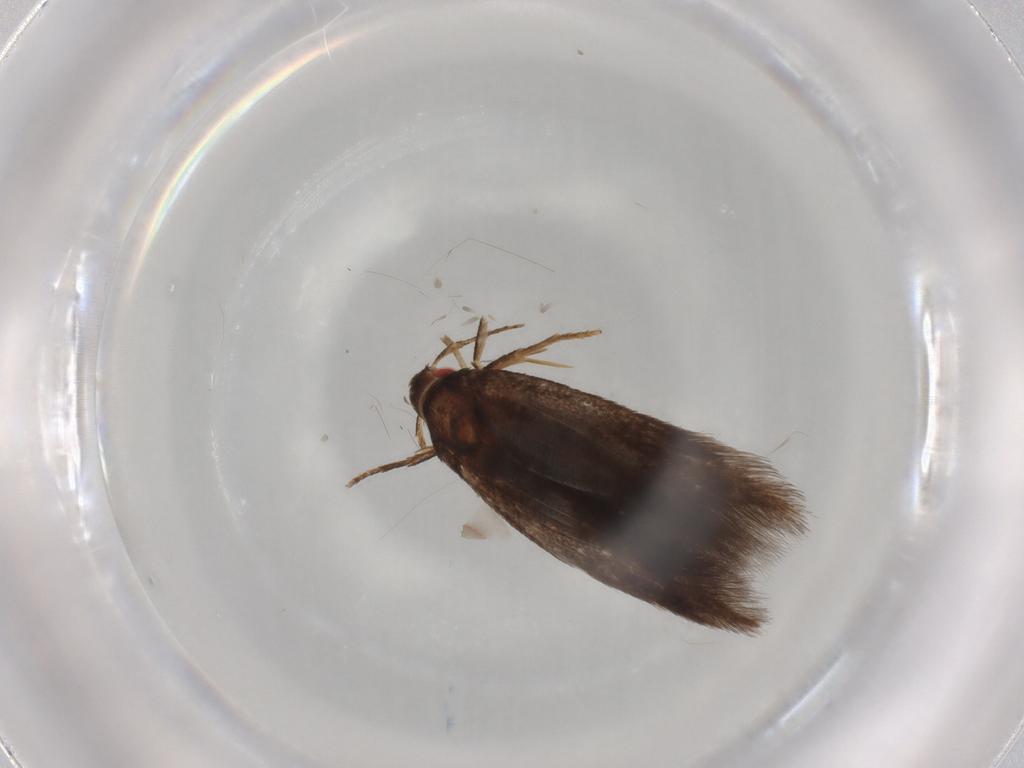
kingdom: Animalia
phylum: Arthropoda
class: Insecta
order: Lepidoptera
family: Cosmopterigidae
